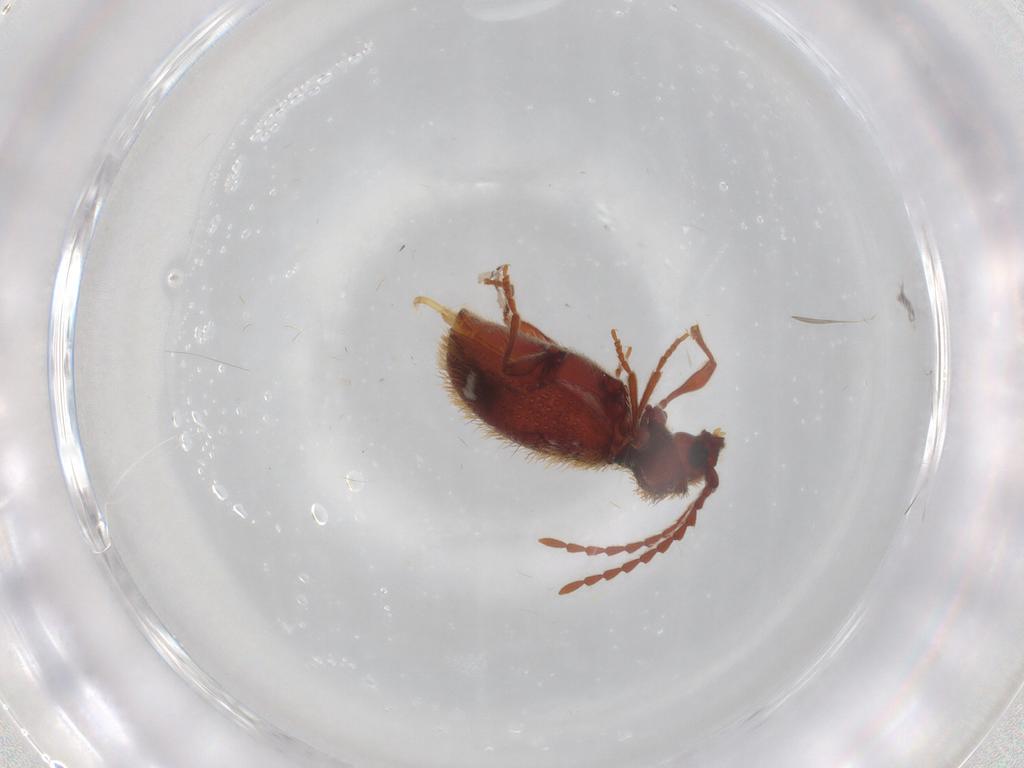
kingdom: Animalia
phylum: Arthropoda
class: Insecta
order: Coleoptera
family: Ptinidae
